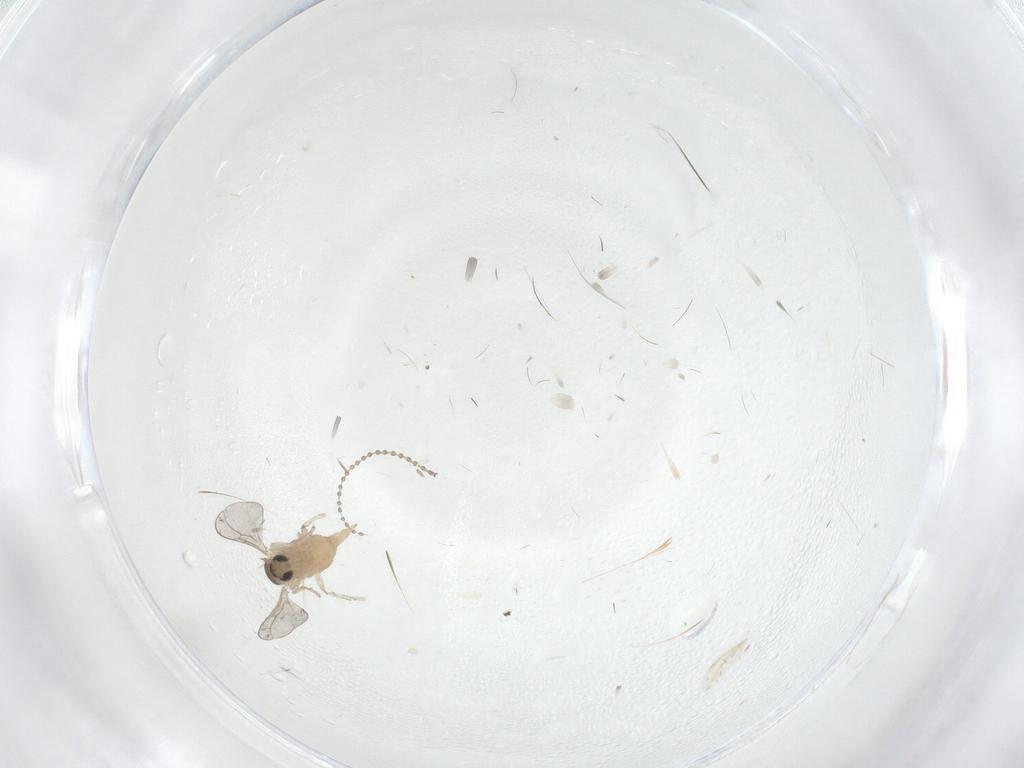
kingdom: Animalia
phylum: Arthropoda
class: Insecta
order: Diptera
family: Cecidomyiidae
